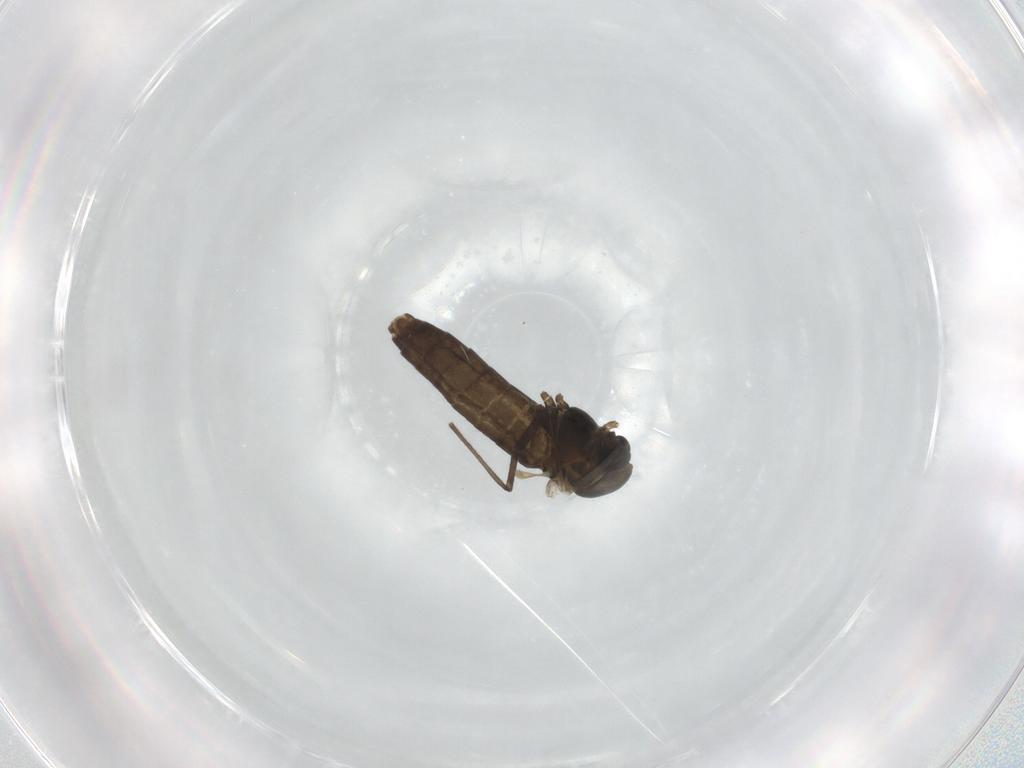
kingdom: Animalia
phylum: Arthropoda
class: Insecta
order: Diptera
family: Chironomidae
